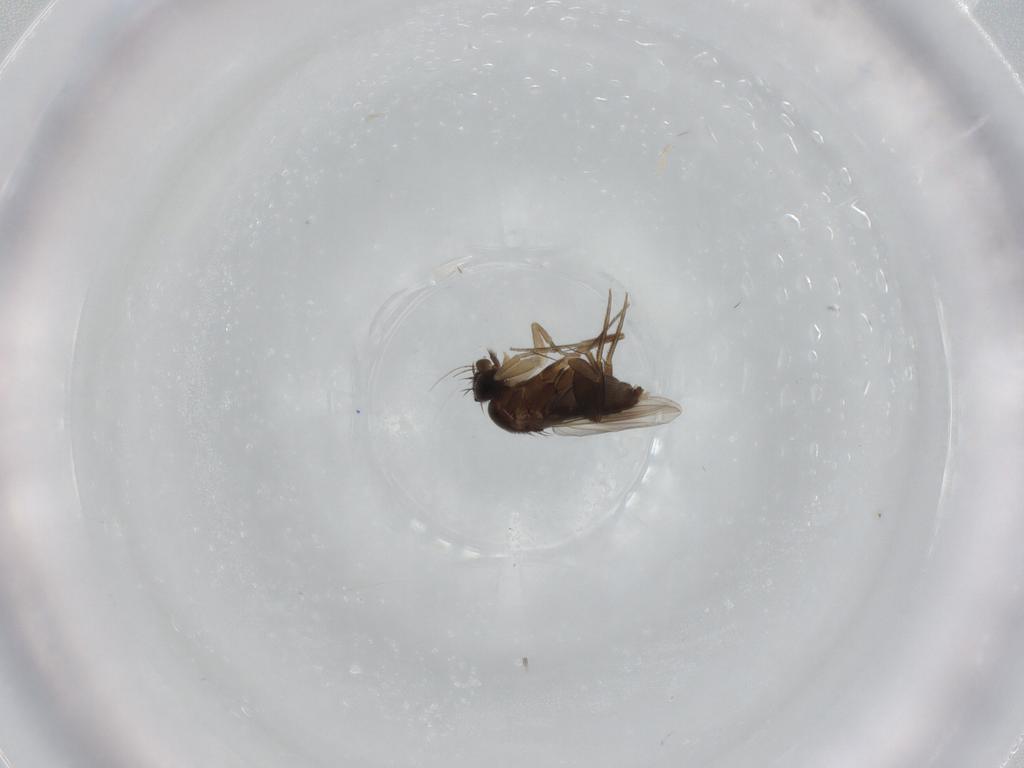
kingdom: Animalia
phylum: Arthropoda
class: Insecta
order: Diptera
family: Phoridae
